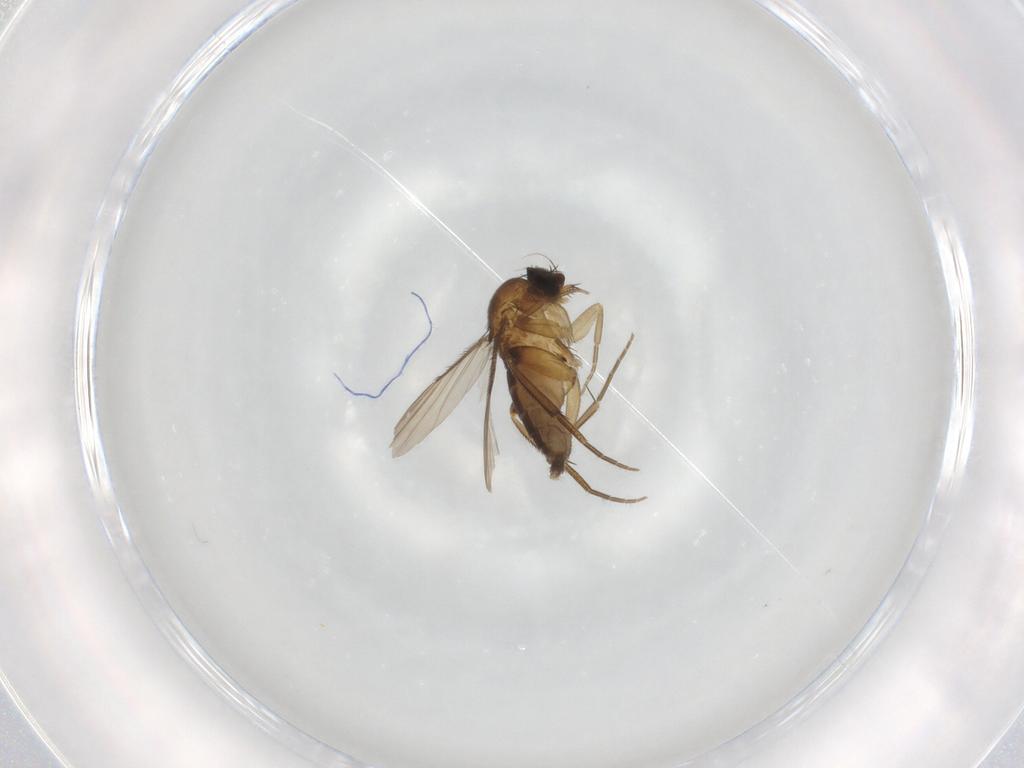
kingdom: Animalia
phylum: Arthropoda
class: Insecta
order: Diptera
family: Phoridae
